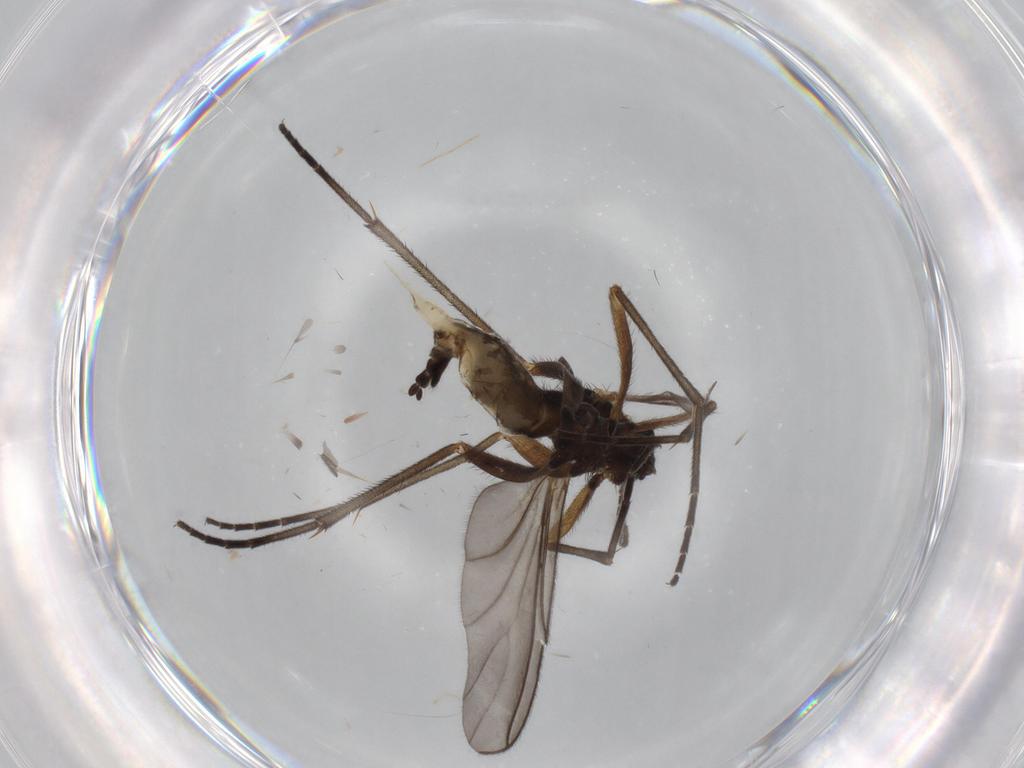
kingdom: Animalia
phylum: Arthropoda
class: Insecta
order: Diptera
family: Sciaridae
